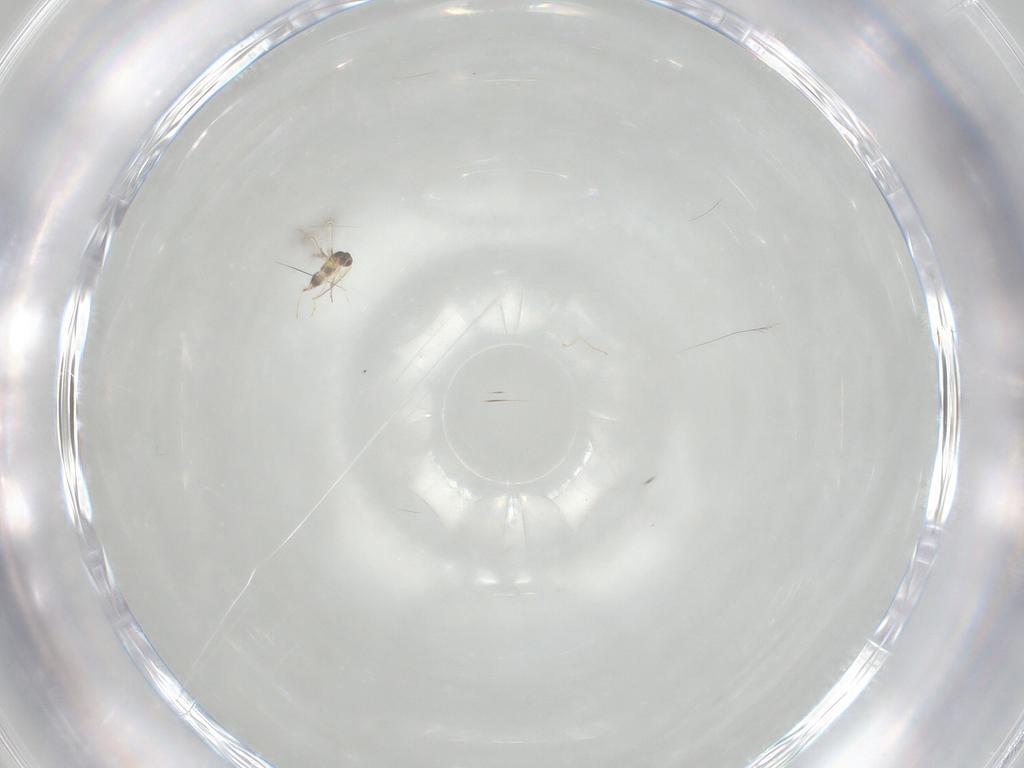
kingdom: Animalia
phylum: Arthropoda
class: Insecta
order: Hymenoptera
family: Mymaridae
